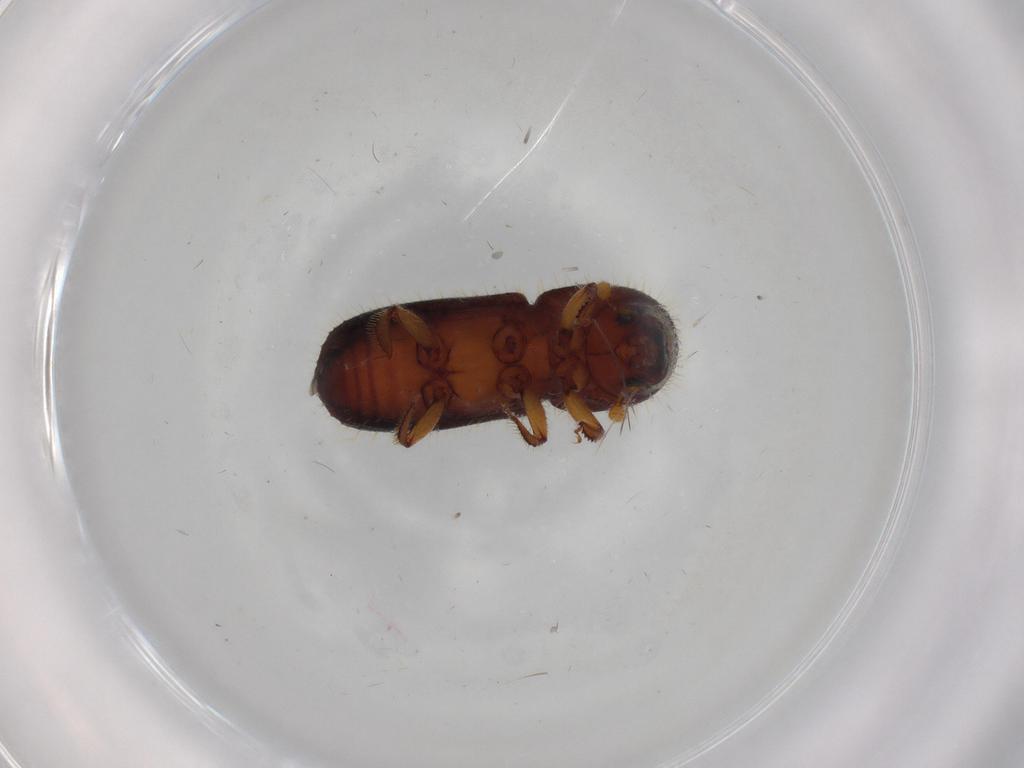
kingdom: Animalia
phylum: Arthropoda
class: Insecta
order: Coleoptera
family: Curculionidae
